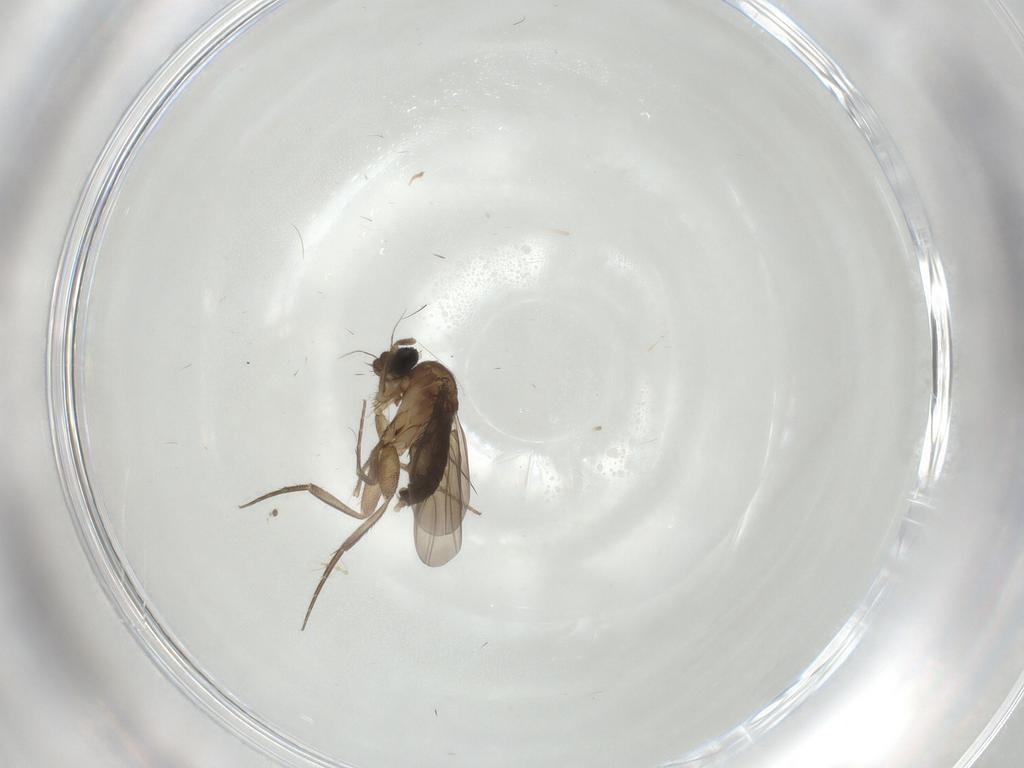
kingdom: Animalia
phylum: Arthropoda
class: Insecta
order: Diptera
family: Phoridae
